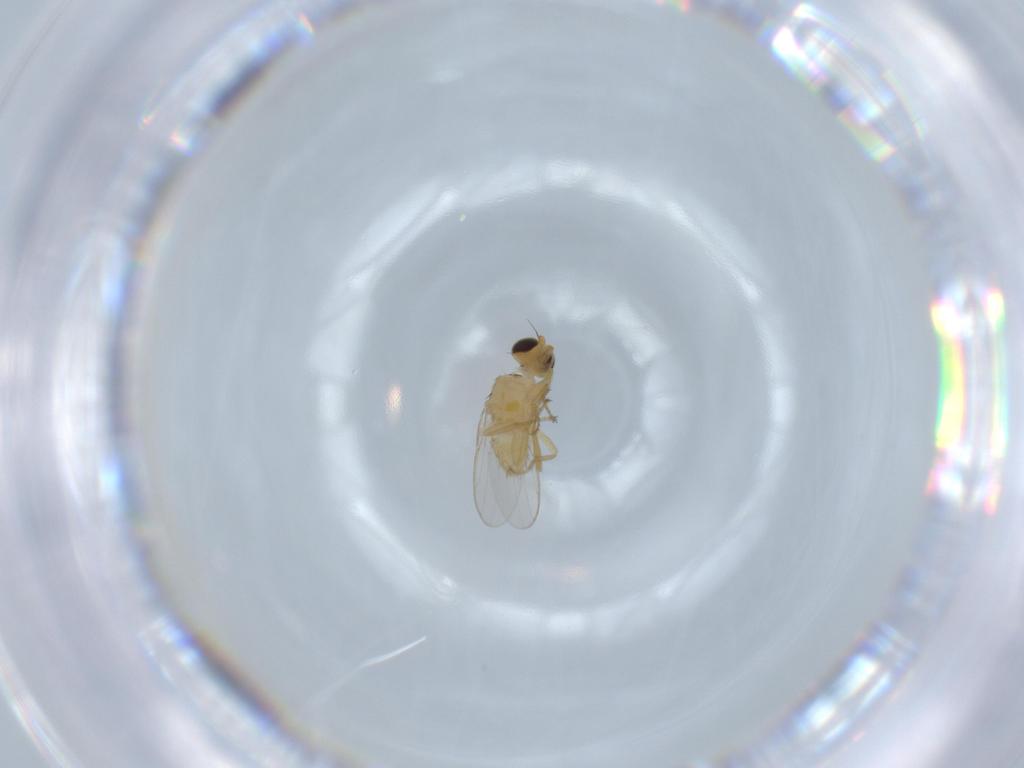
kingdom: Animalia
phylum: Arthropoda
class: Insecta
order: Diptera
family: Chloropidae
